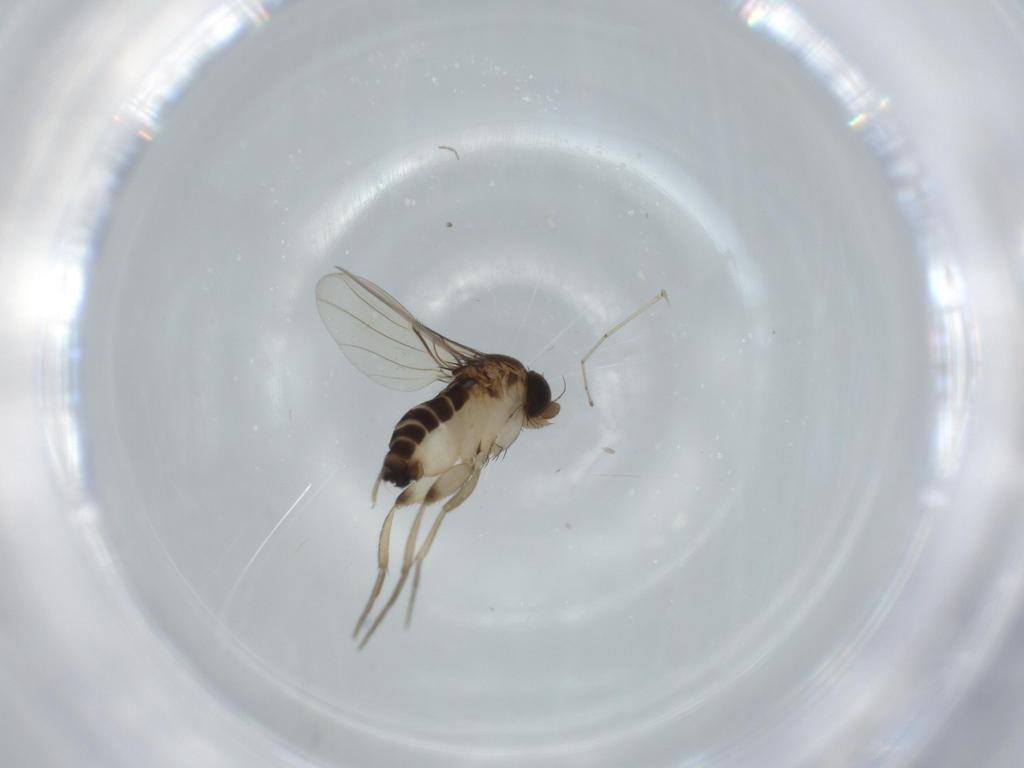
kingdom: Animalia
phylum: Arthropoda
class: Insecta
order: Diptera
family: Phoridae
